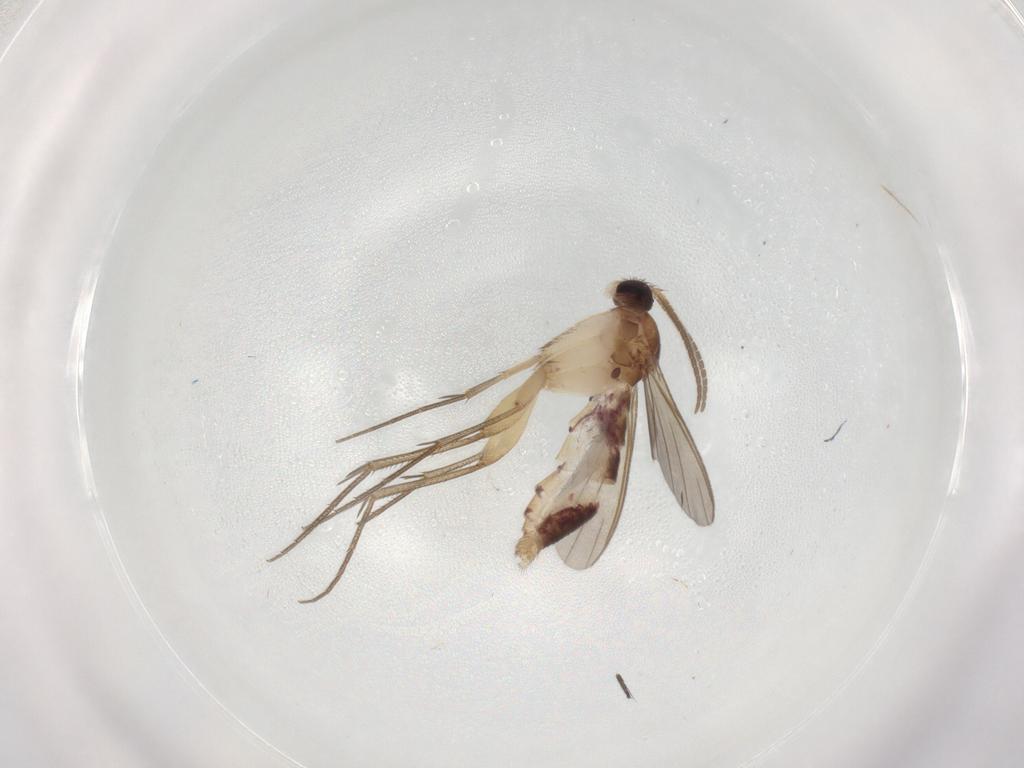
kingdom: Animalia
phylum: Arthropoda
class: Insecta
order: Diptera
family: Mycetophilidae
